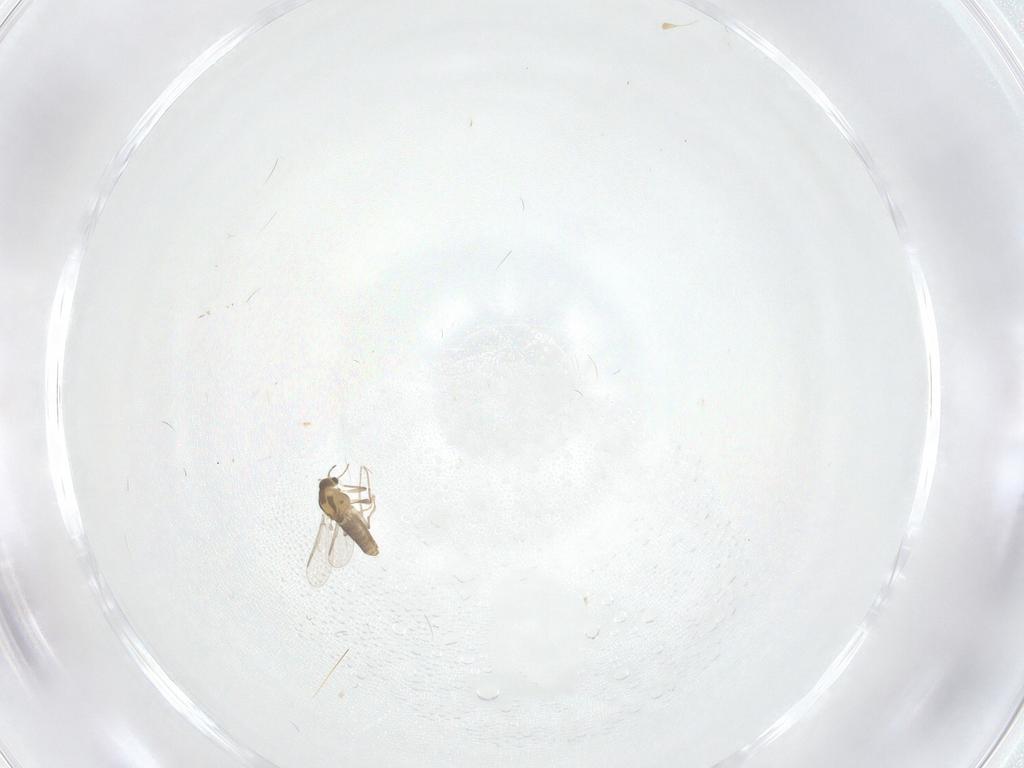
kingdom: Animalia
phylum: Arthropoda
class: Insecta
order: Diptera
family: Chironomidae
